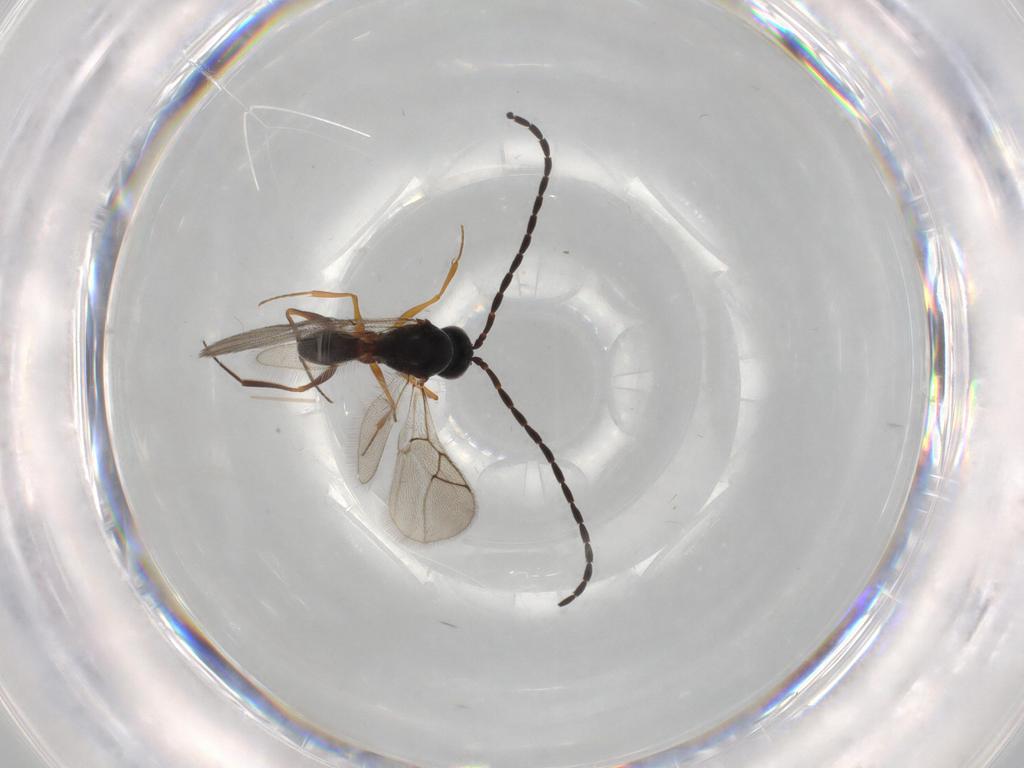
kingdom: Animalia
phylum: Arthropoda
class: Insecta
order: Hymenoptera
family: Figitidae
